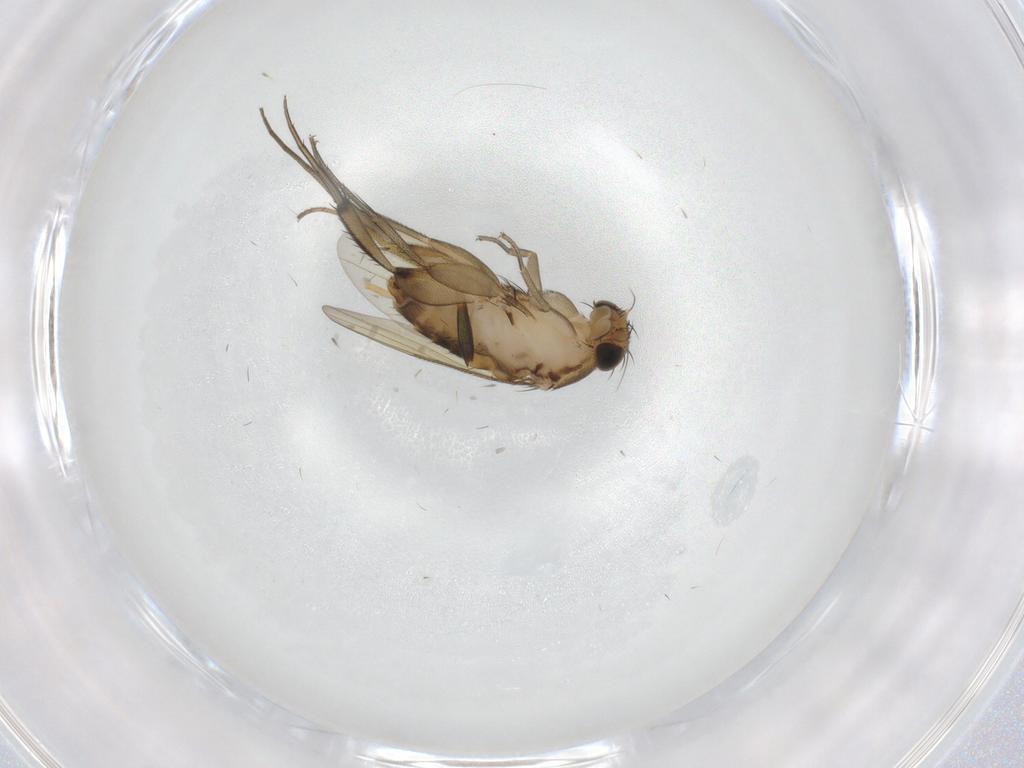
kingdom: Animalia
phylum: Arthropoda
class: Insecta
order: Diptera
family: Phoridae
